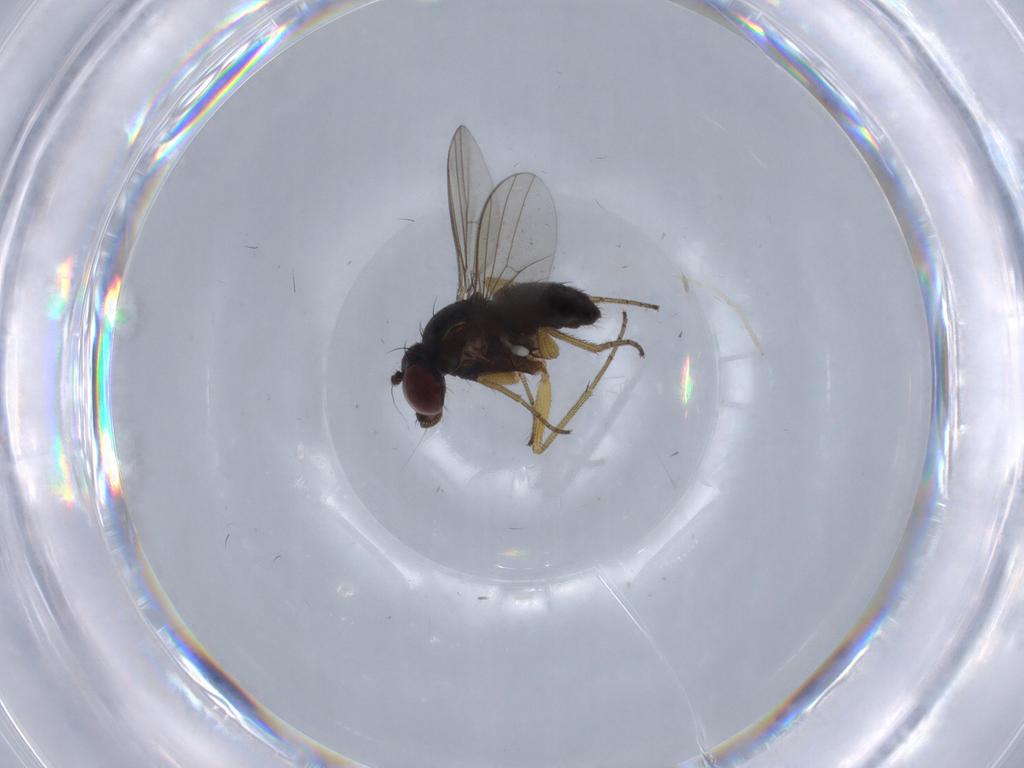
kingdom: Animalia
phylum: Arthropoda
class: Insecta
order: Diptera
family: Dolichopodidae
